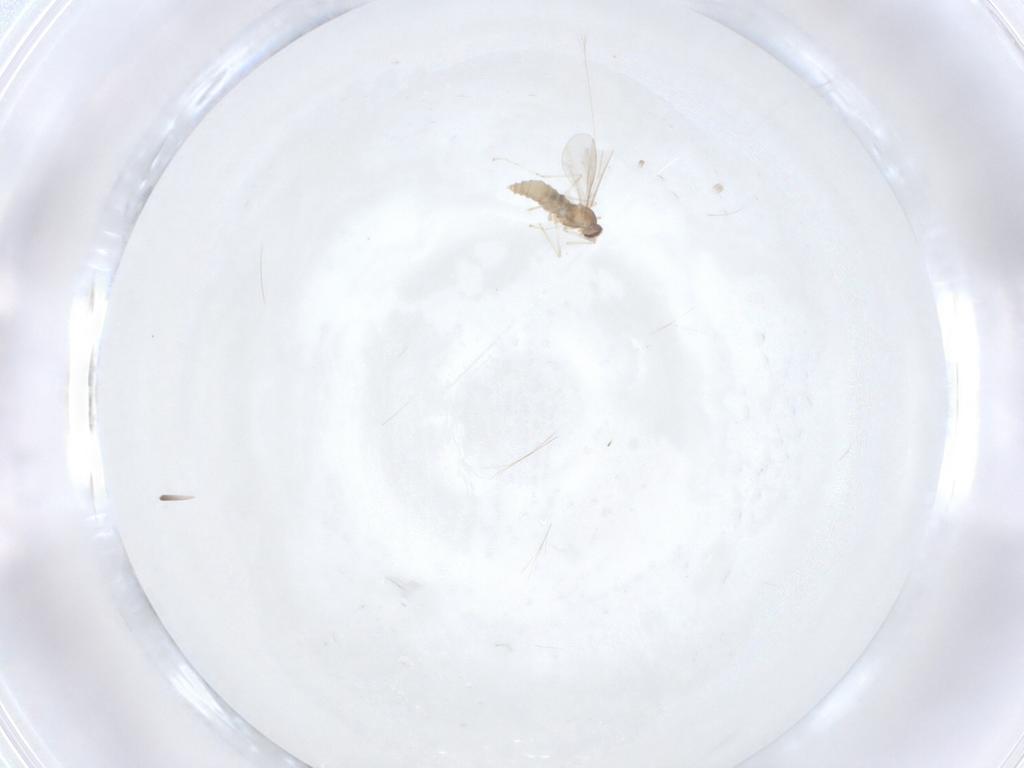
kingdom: Animalia
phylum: Arthropoda
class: Insecta
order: Diptera
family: Cecidomyiidae
